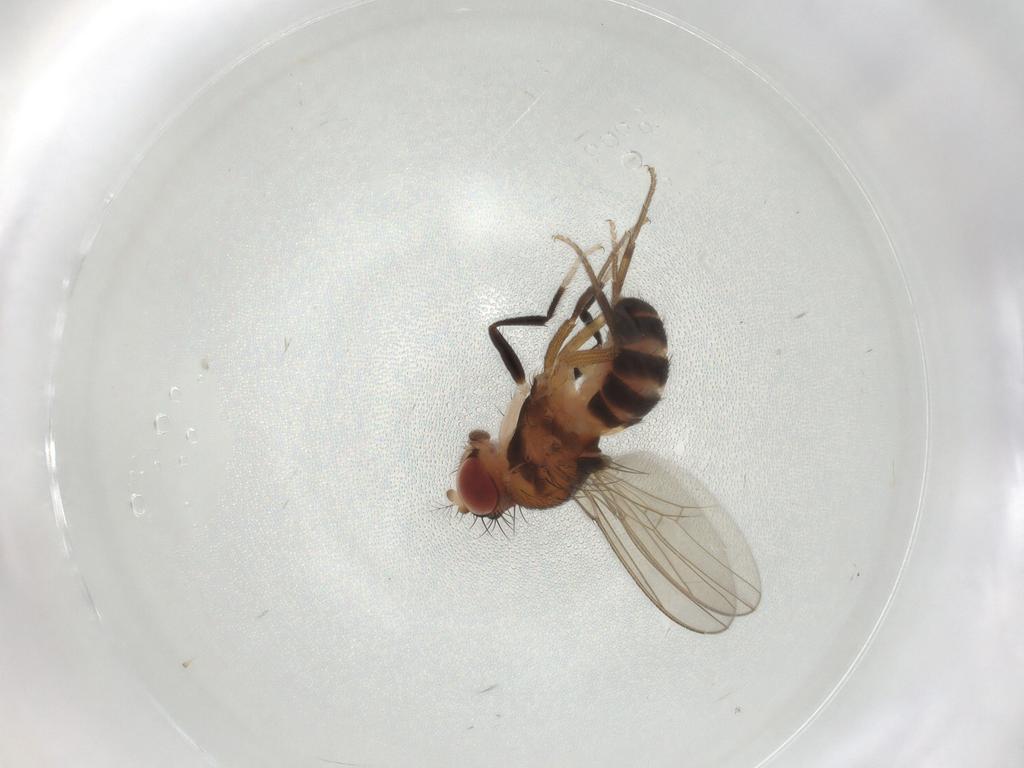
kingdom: Animalia
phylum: Arthropoda
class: Insecta
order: Diptera
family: Drosophilidae
